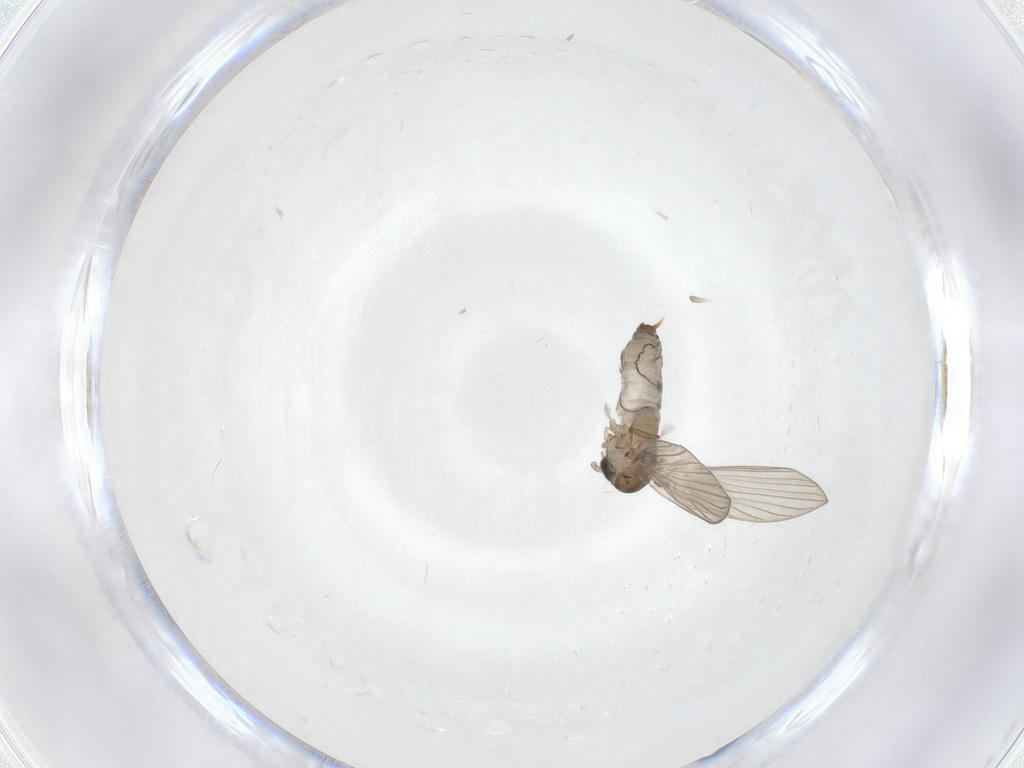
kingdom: Animalia
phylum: Arthropoda
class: Insecta
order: Diptera
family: Psychodidae
